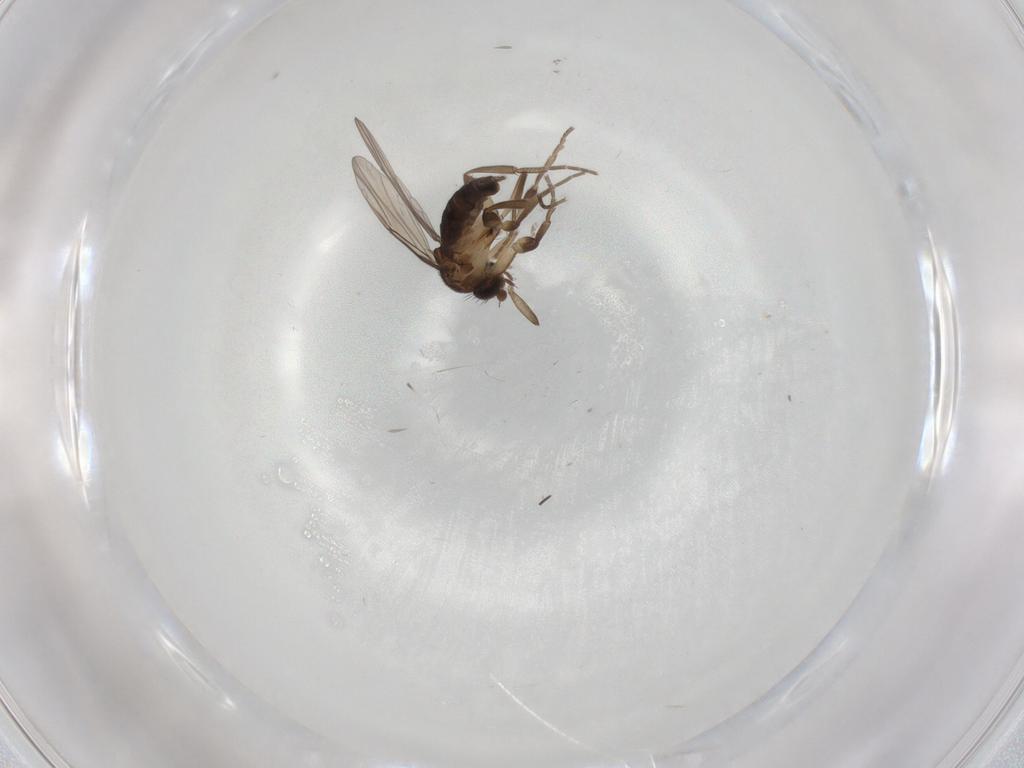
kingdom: Animalia
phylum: Arthropoda
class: Insecta
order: Diptera
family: Phoridae
